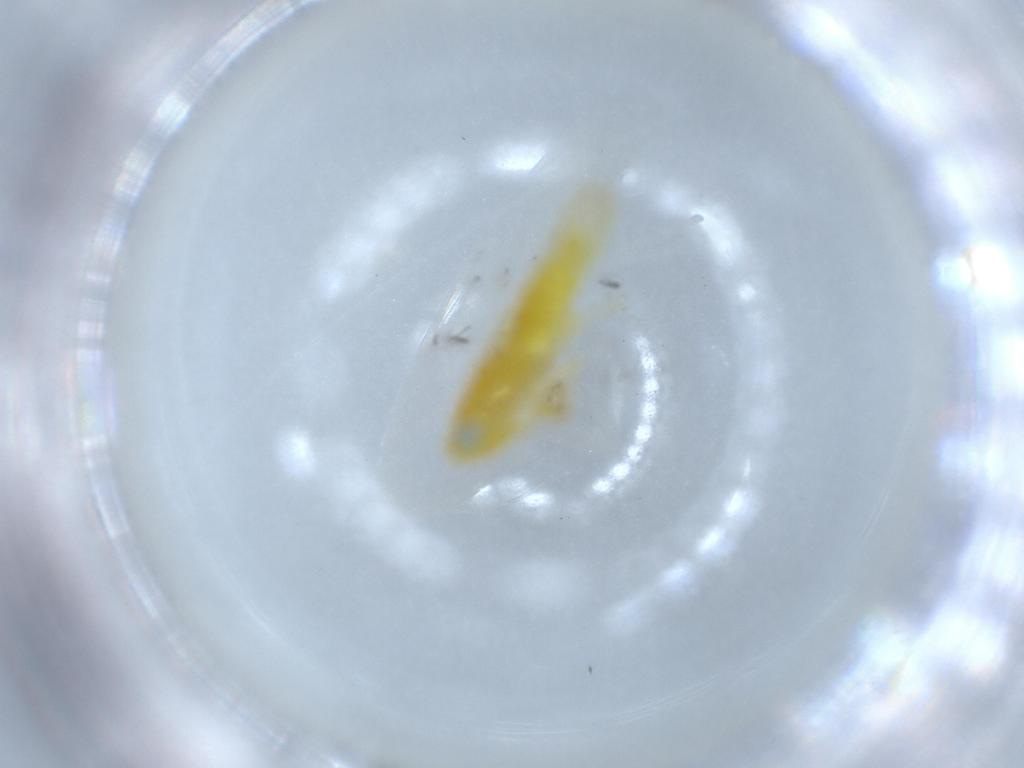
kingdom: Animalia
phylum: Arthropoda
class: Insecta
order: Hemiptera
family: Cicadellidae
